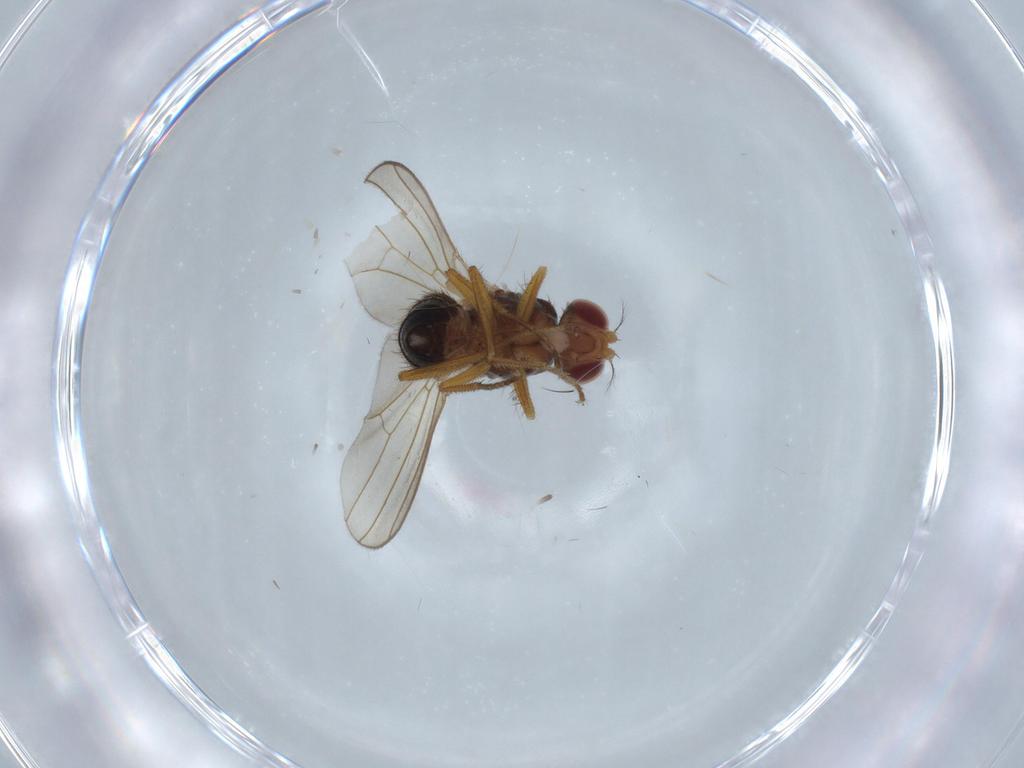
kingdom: Animalia
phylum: Arthropoda
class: Insecta
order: Diptera
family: Drosophilidae
